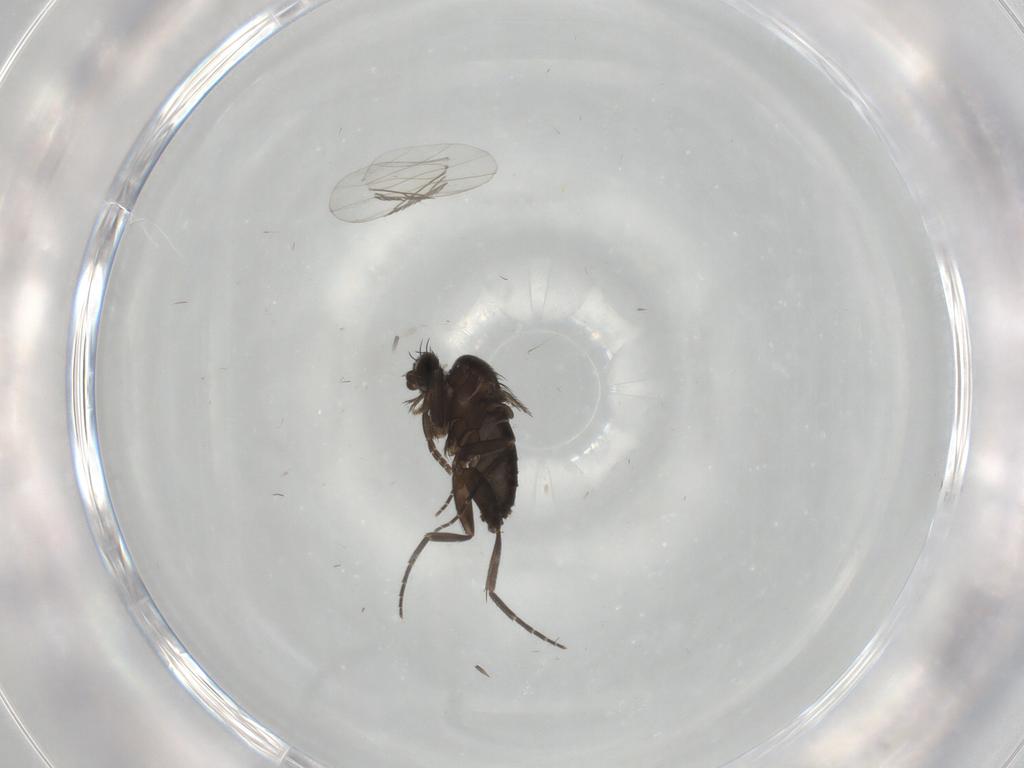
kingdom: Animalia
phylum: Arthropoda
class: Insecta
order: Diptera
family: Phoridae
